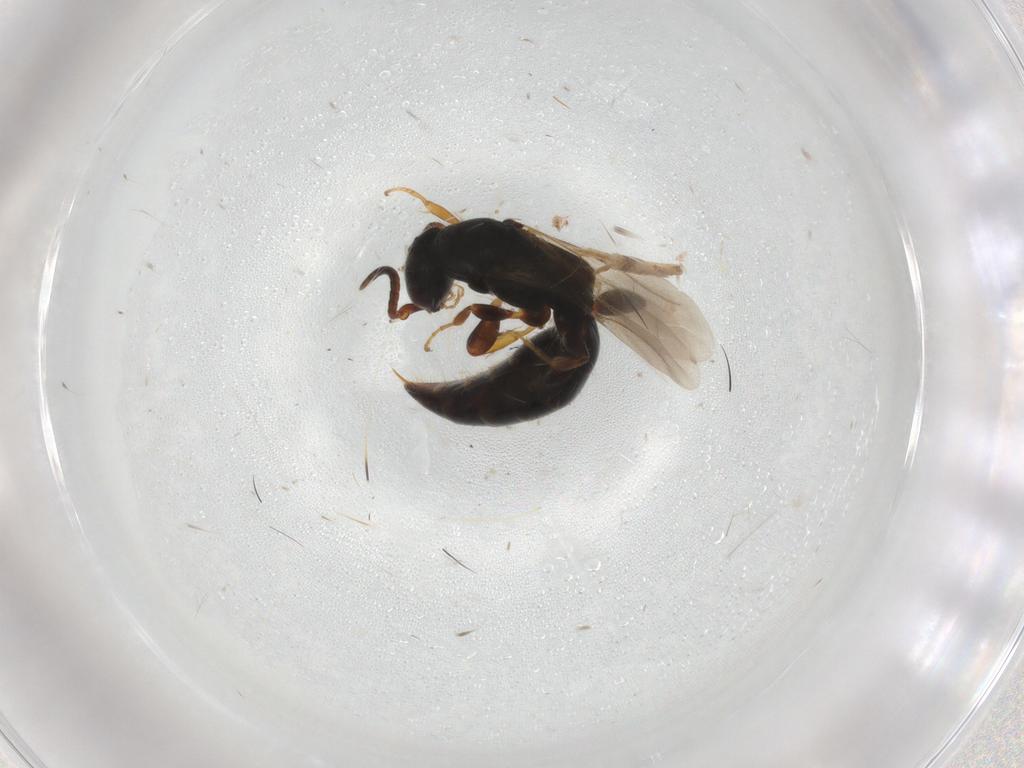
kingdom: Animalia
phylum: Arthropoda
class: Insecta
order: Hymenoptera
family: Bethylidae
